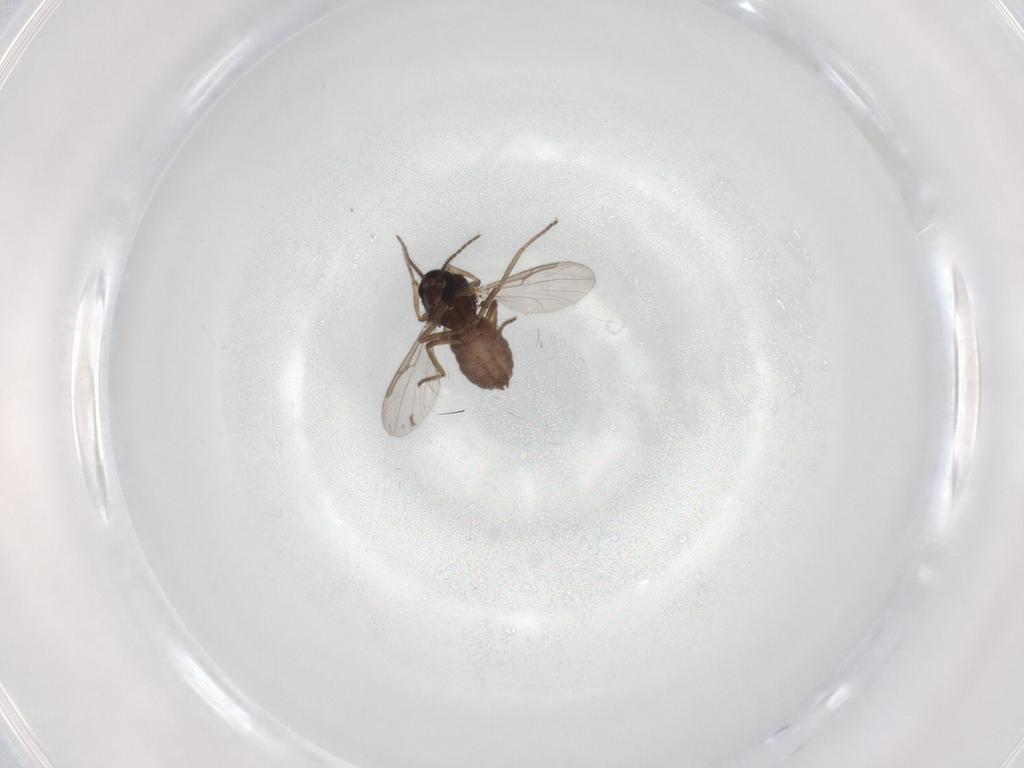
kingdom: Animalia
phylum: Arthropoda
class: Insecta
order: Diptera
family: Ceratopogonidae
